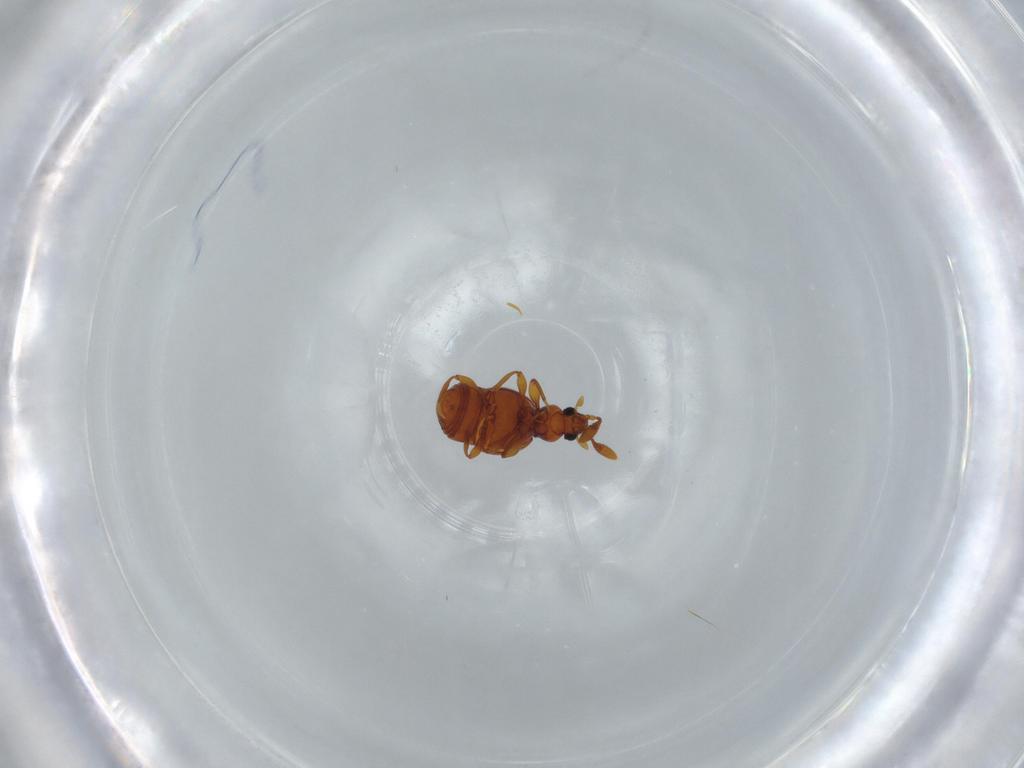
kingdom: Animalia
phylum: Arthropoda
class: Insecta
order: Coleoptera
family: Staphylinidae
